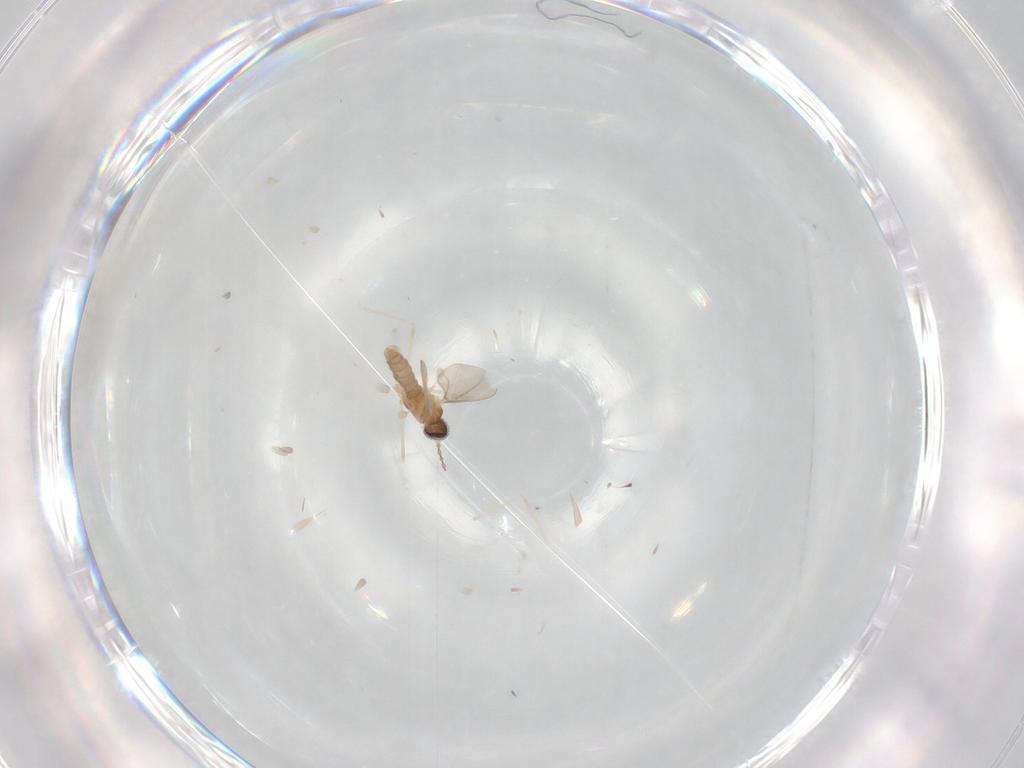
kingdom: Animalia
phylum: Arthropoda
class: Insecta
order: Diptera
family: Cecidomyiidae
